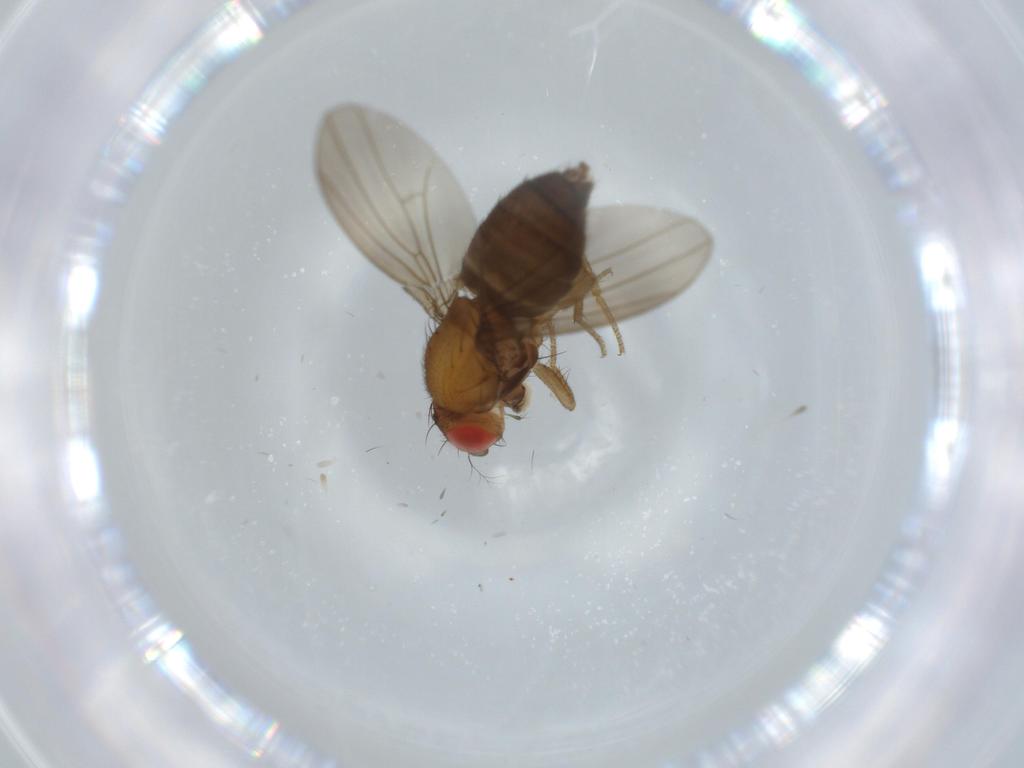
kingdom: Animalia
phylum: Arthropoda
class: Insecta
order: Diptera
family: Drosophilidae
